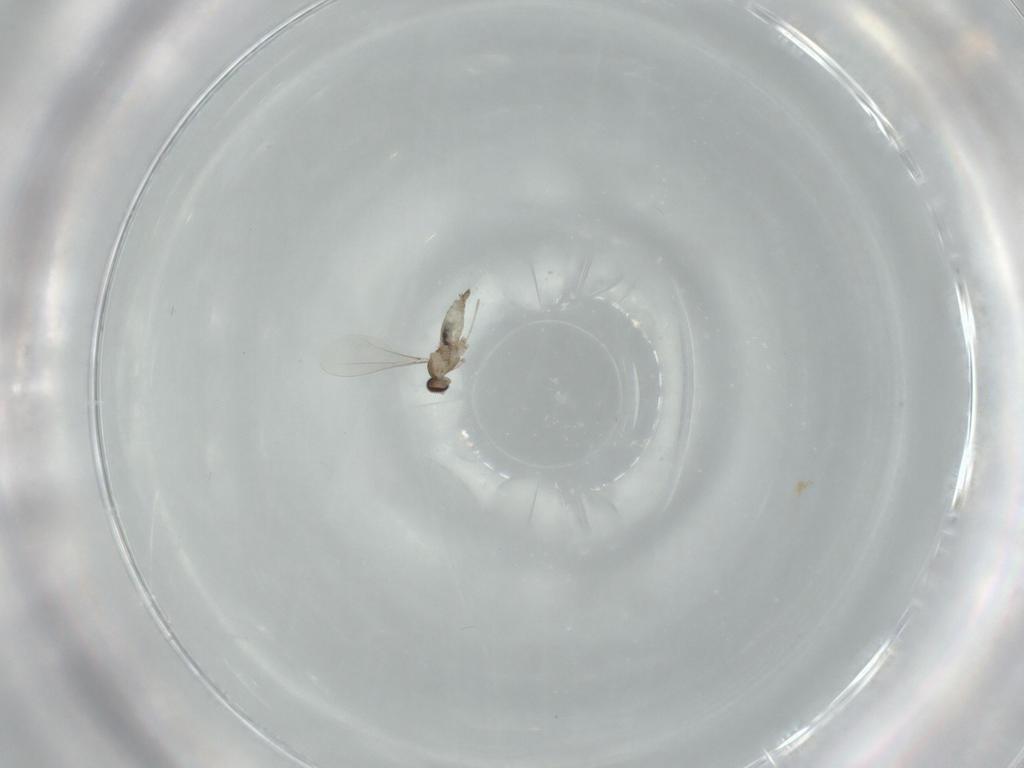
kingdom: Animalia
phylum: Arthropoda
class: Insecta
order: Diptera
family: Cecidomyiidae
